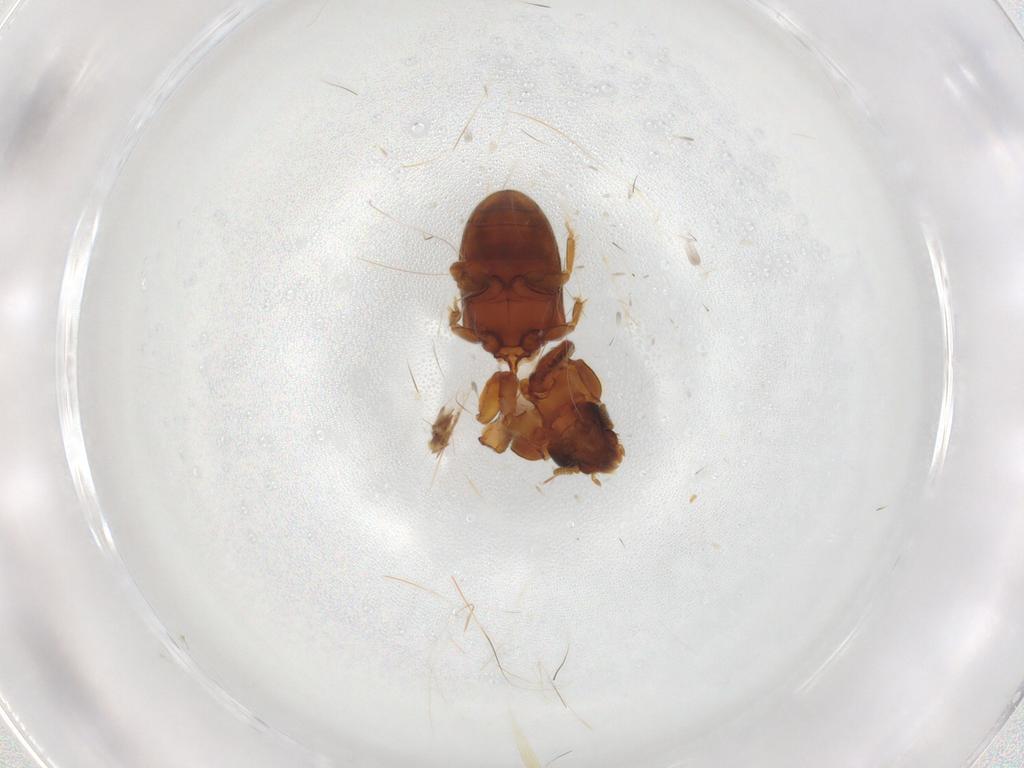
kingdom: Animalia
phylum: Arthropoda
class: Insecta
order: Coleoptera
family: Heteroceridae
